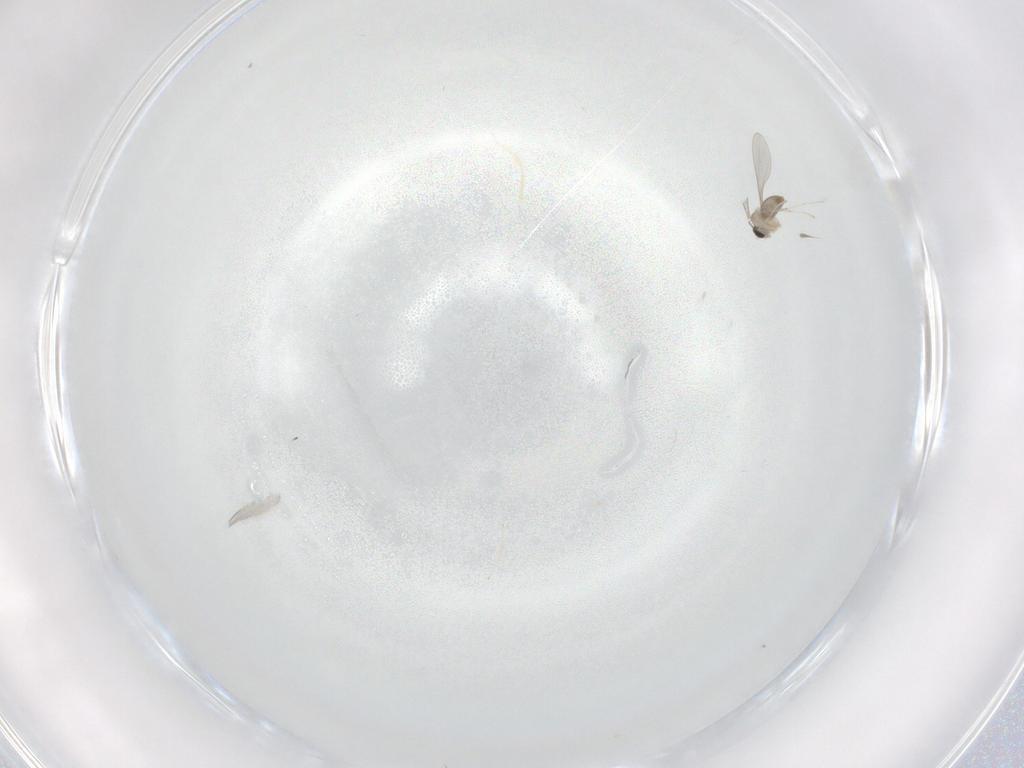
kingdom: Animalia
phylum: Arthropoda
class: Insecta
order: Diptera
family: Cecidomyiidae
